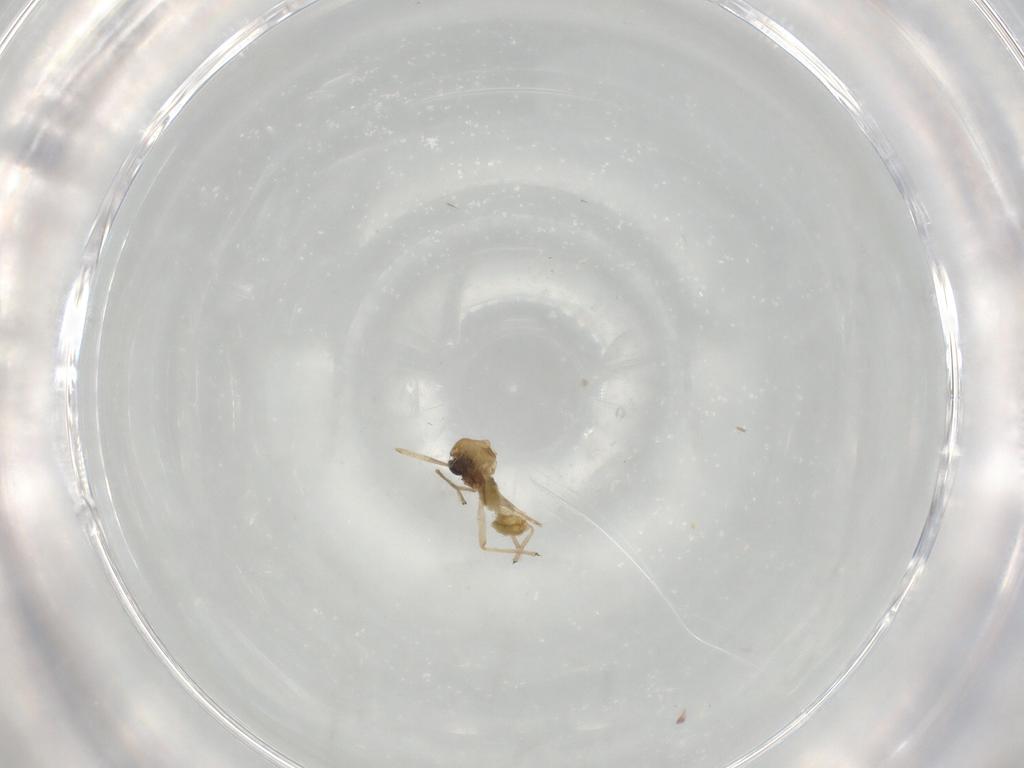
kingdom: Animalia
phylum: Arthropoda
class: Insecta
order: Diptera
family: Chironomidae
